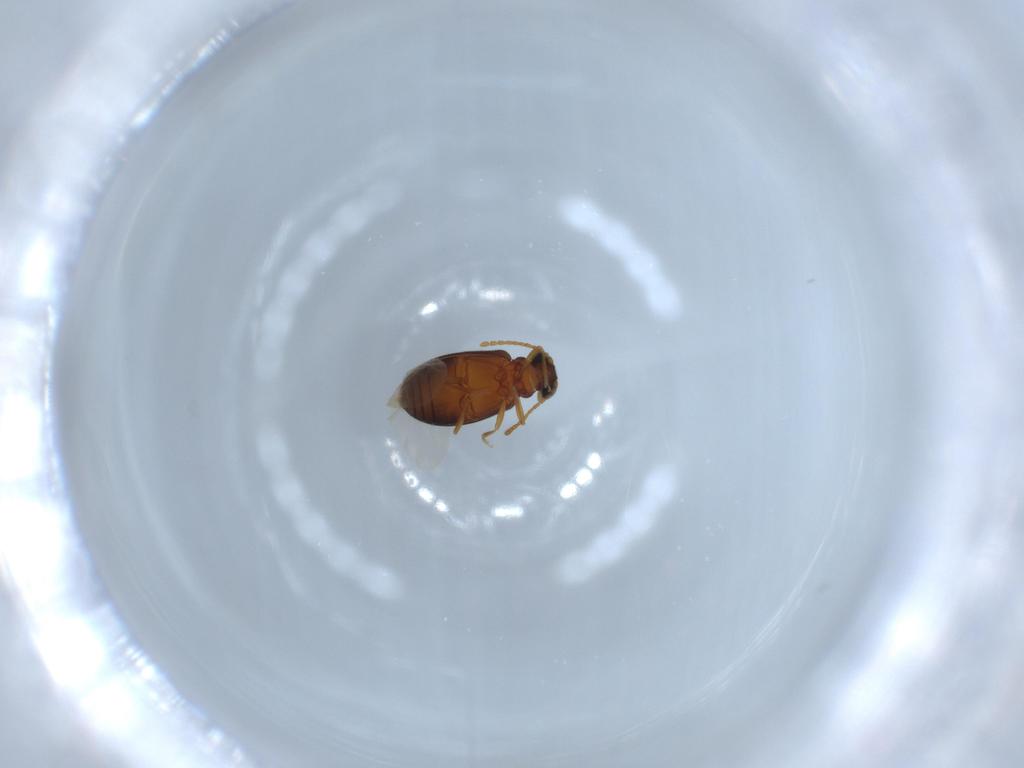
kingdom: Animalia
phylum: Arthropoda
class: Insecta
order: Coleoptera
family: Aderidae
